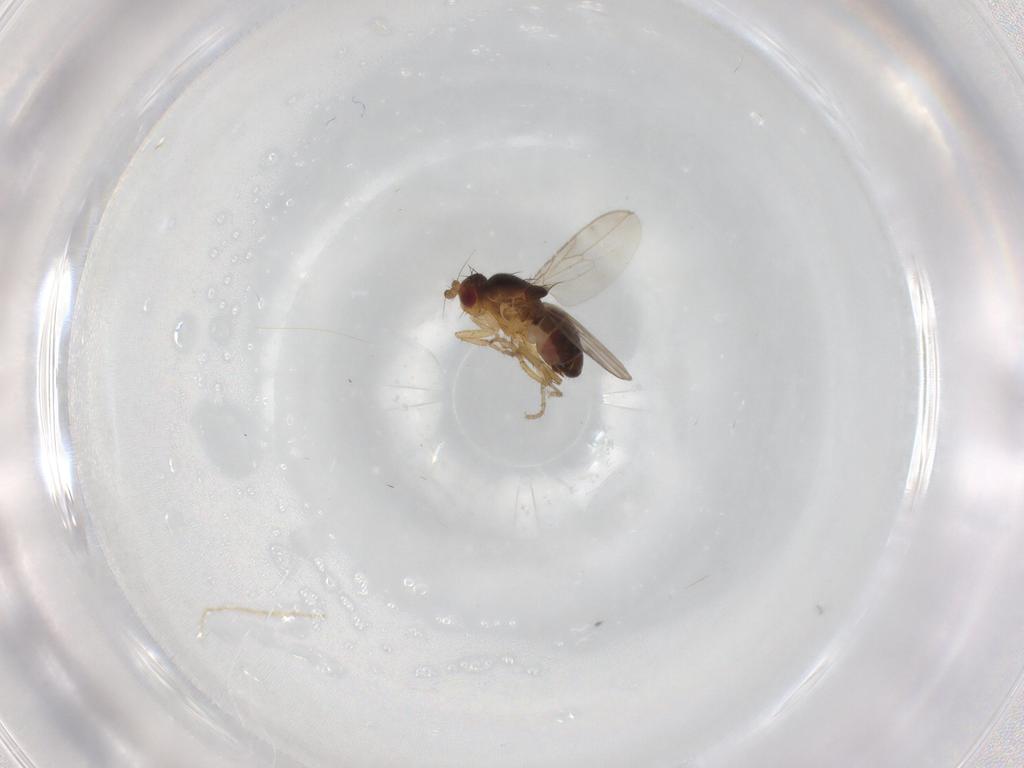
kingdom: Animalia
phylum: Arthropoda
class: Insecta
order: Diptera
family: Sphaeroceridae
